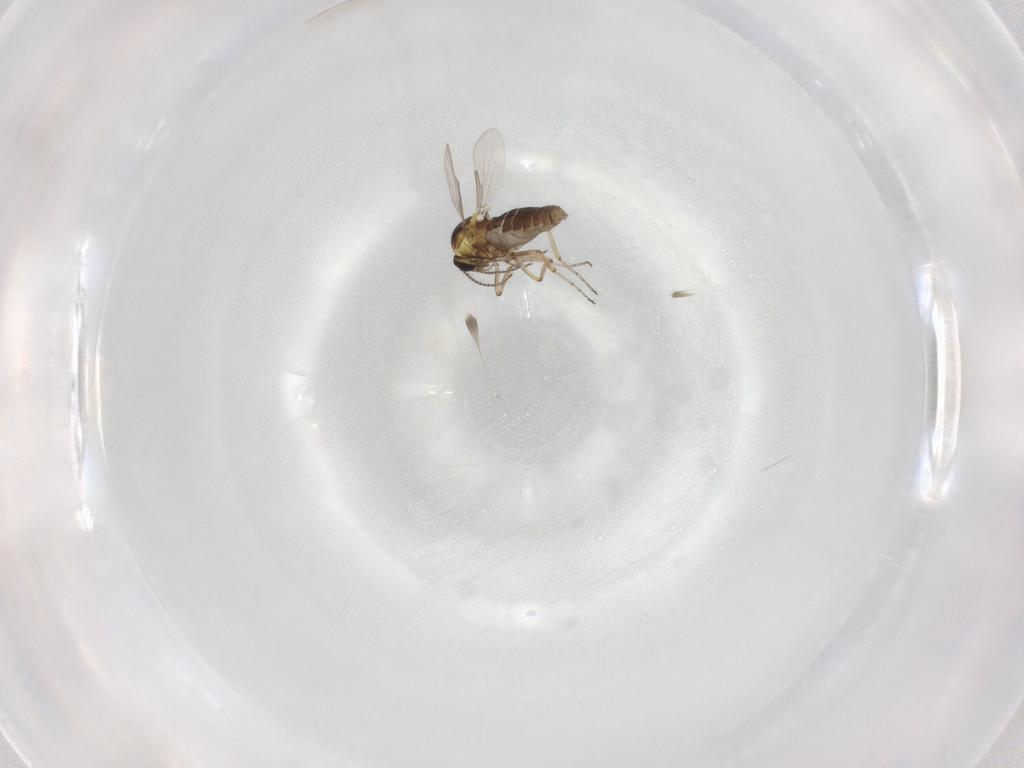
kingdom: Animalia
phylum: Arthropoda
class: Insecta
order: Diptera
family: Ceratopogonidae
